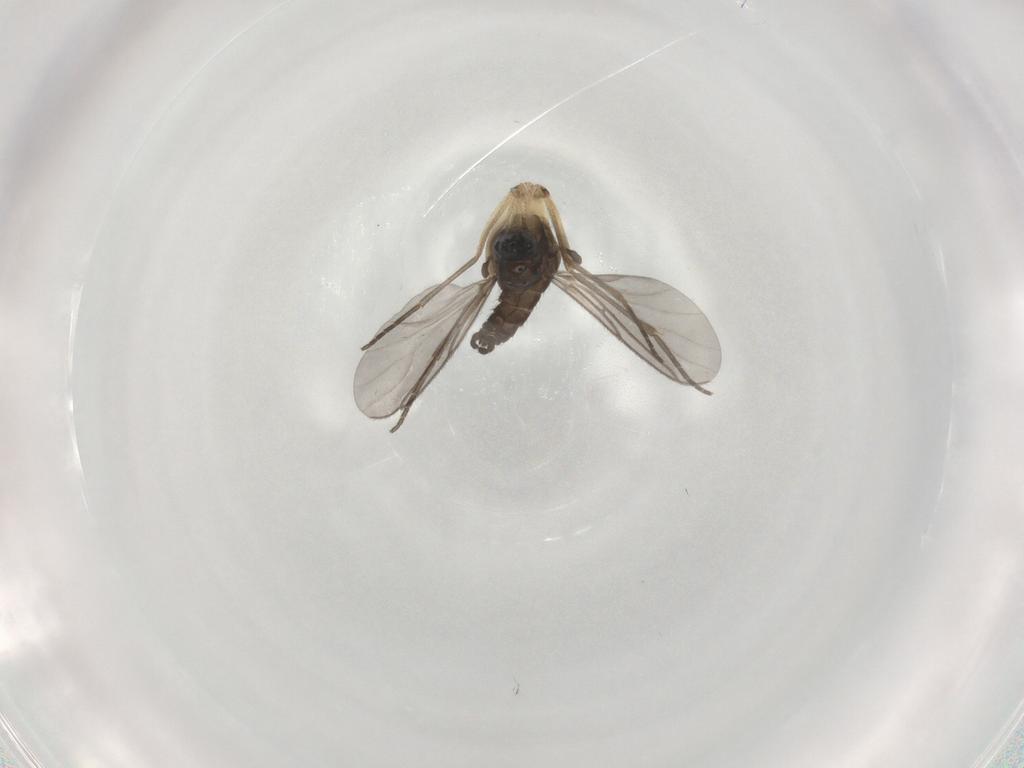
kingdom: Animalia
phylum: Arthropoda
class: Insecta
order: Diptera
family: Sciaridae
